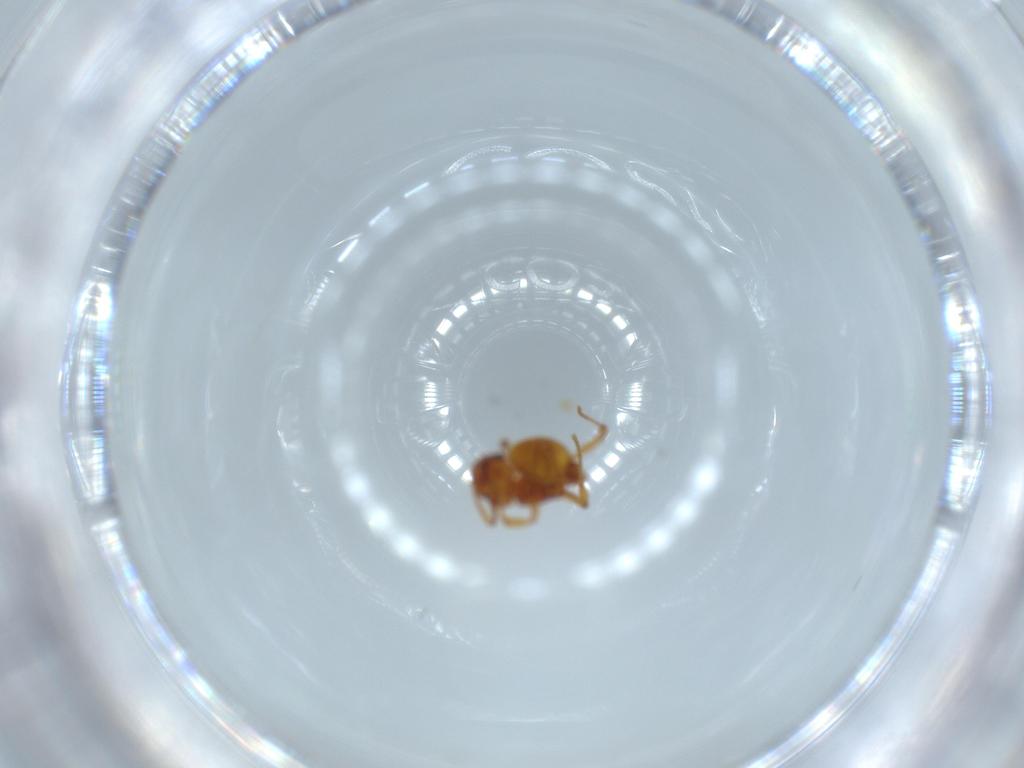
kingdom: Animalia
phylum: Arthropoda
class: Insecta
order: Hymenoptera
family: Formicidae
